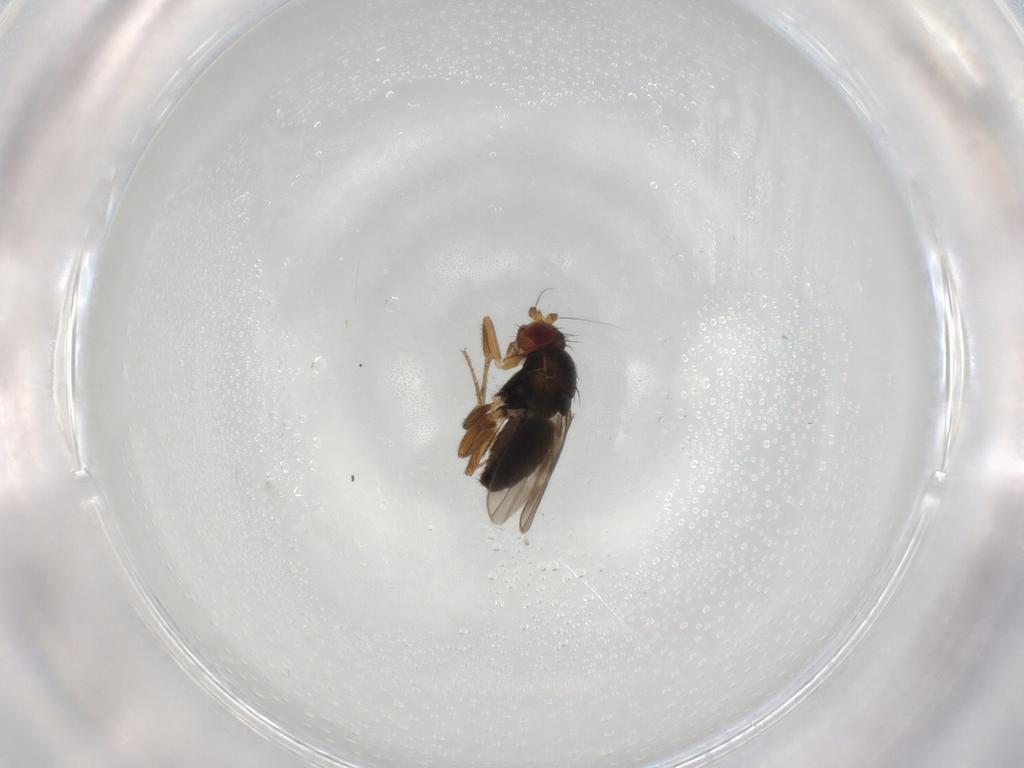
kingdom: Animalia
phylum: Arthropoda
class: Insecta
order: Diptera
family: Sphaeroceridae
